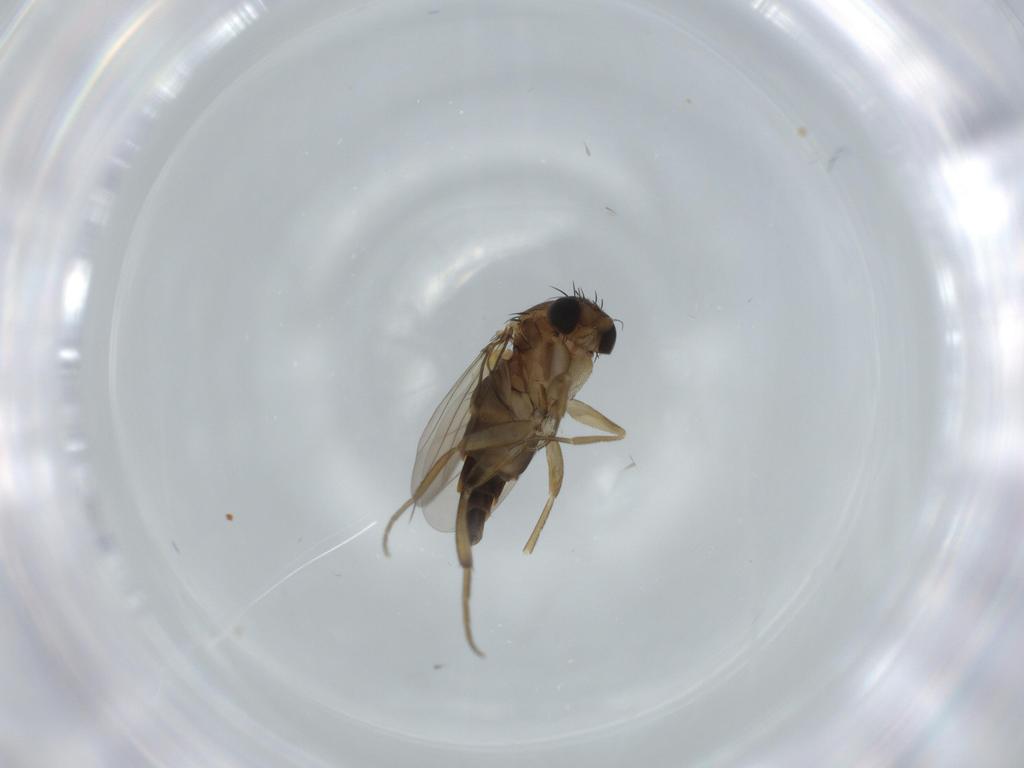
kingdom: Animalia
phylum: Arthropoda
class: Insecta
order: Diptera
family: Phoridae
